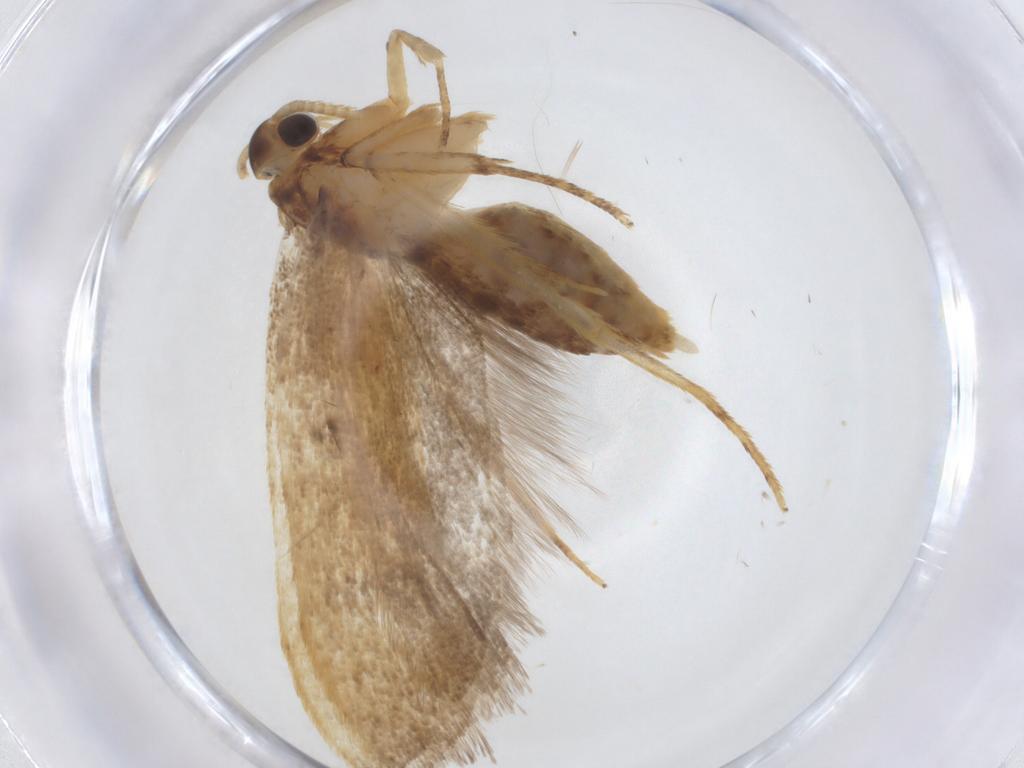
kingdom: Animalia
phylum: Arthropoda
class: Insecta
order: Lepidoptera
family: Lecithoceridae
